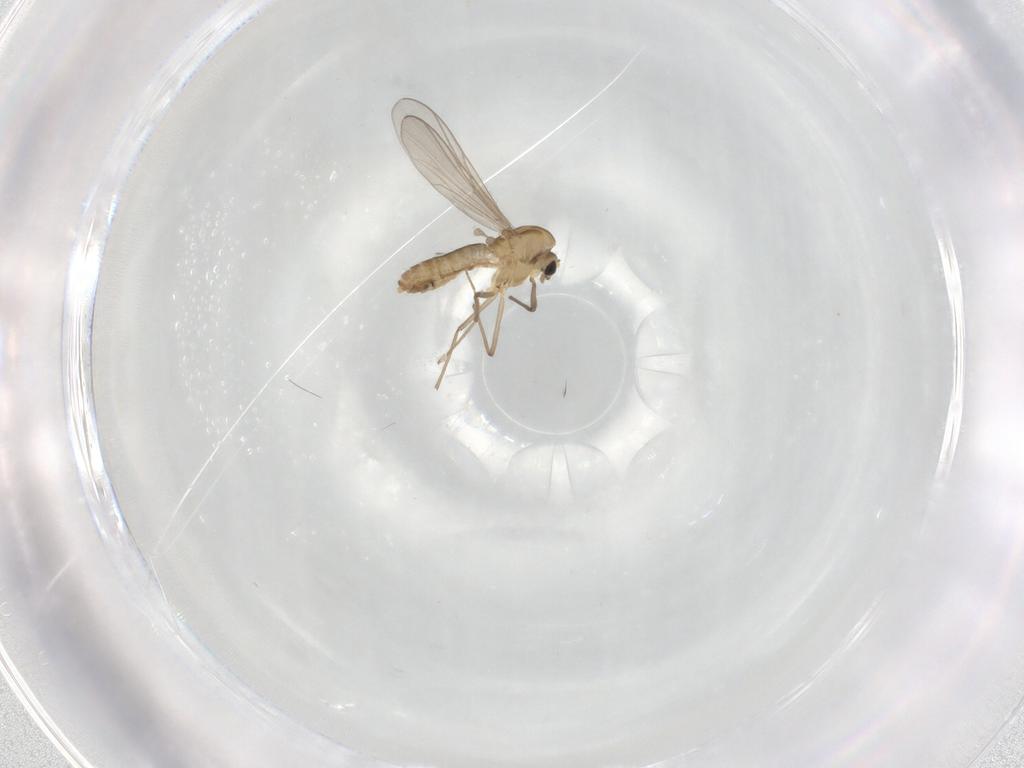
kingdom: Animalia
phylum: Arthropoda
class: Insecta
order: Diptera
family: Chironomidae
